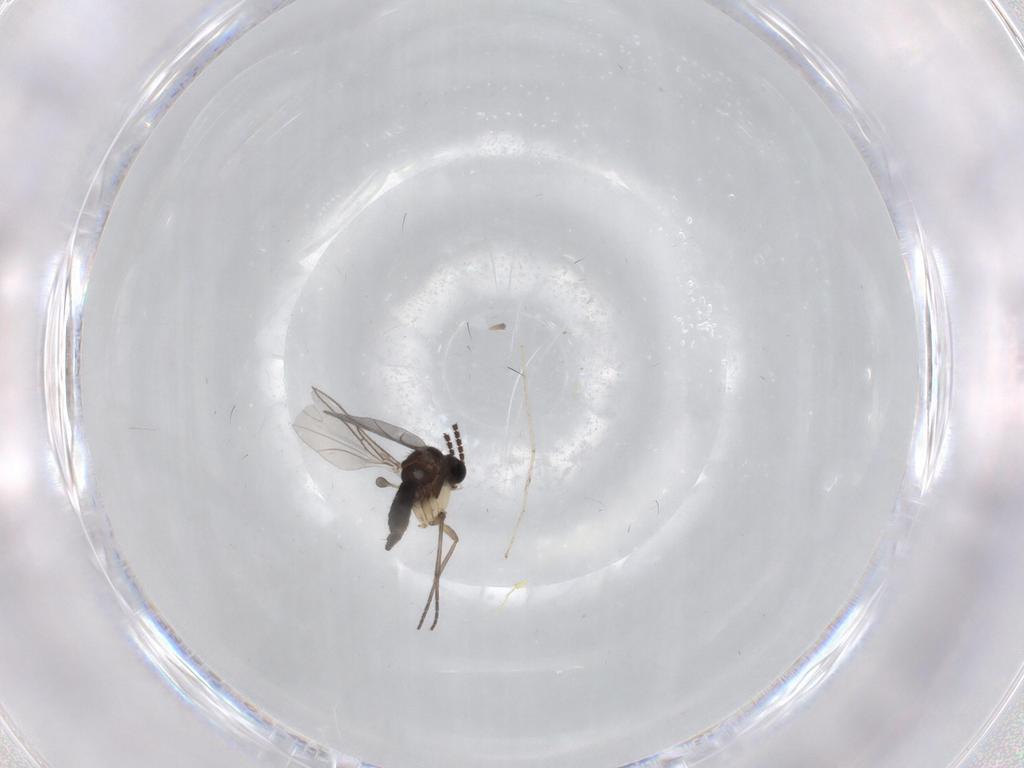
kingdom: Animalia
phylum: Arthropoda
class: Insecta
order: Diptera
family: Sciaridae
